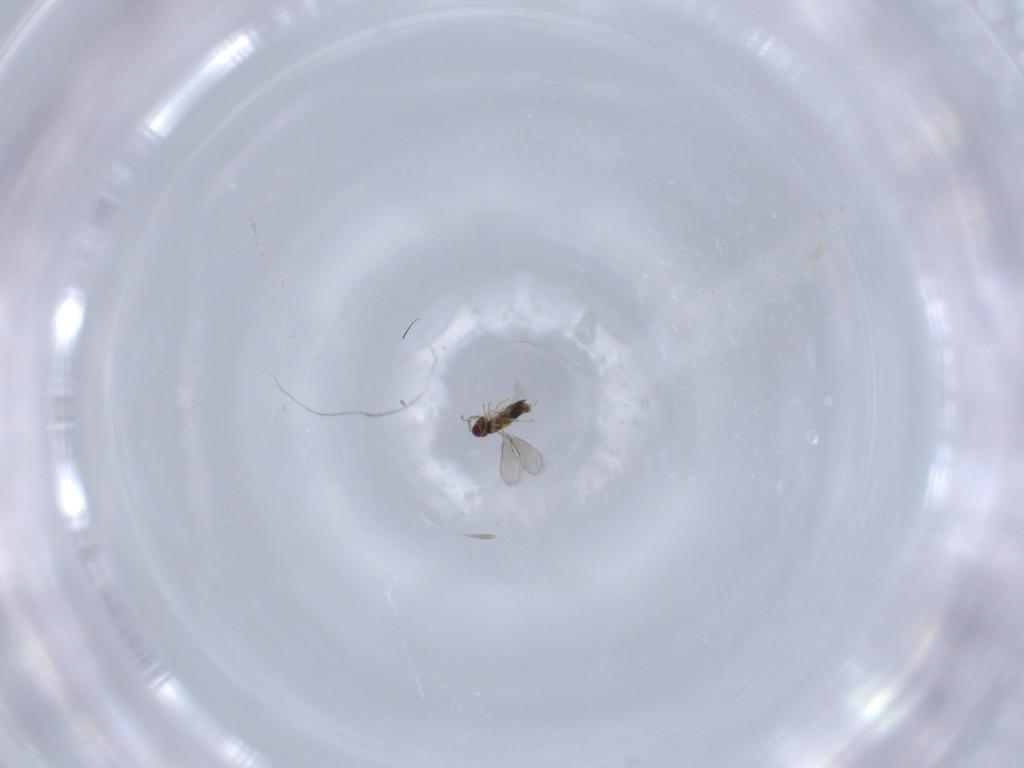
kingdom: Animalia
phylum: Arthropoda
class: Insecta
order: Hymenoptera
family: Aphelinidae
